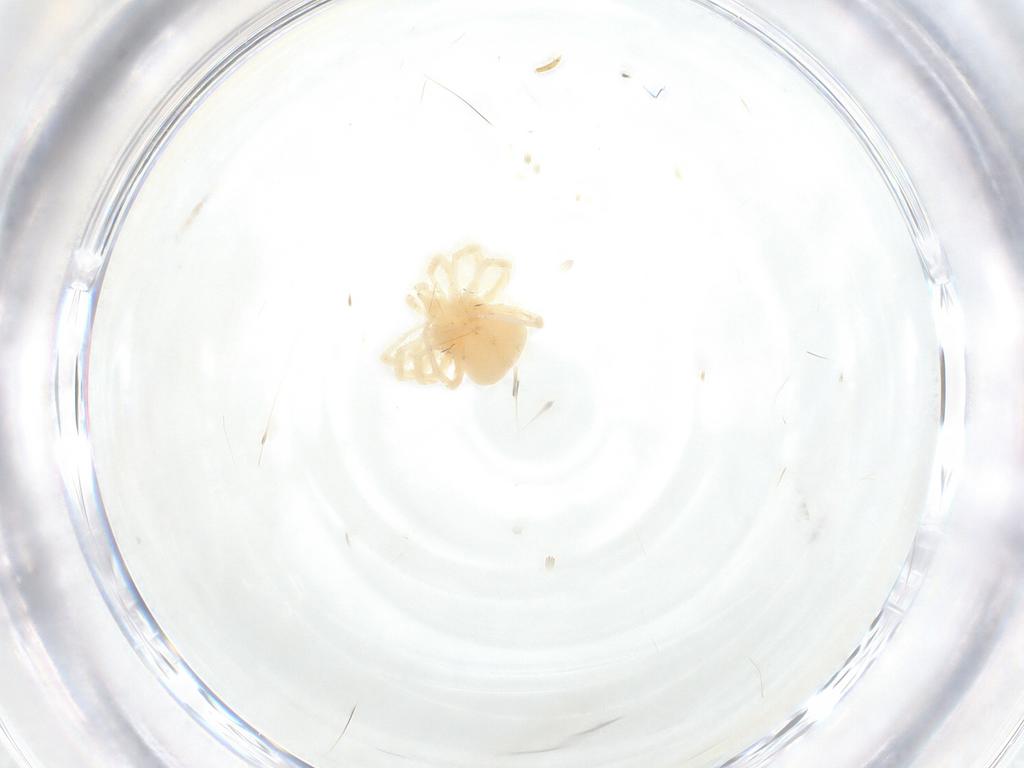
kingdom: Animalia
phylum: Arthropoda
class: Arachnida
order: Trombidiformes
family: Anystidae
